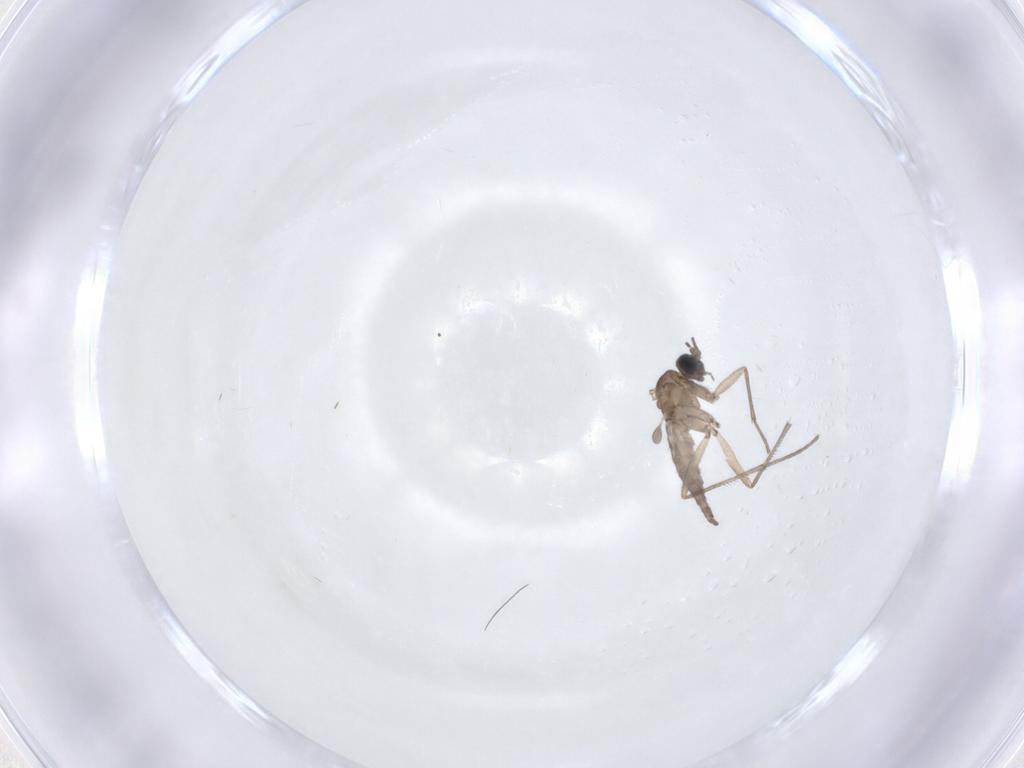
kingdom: Animalia
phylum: Arthropoda
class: Insecta
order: Diptera
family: Sciaridae
